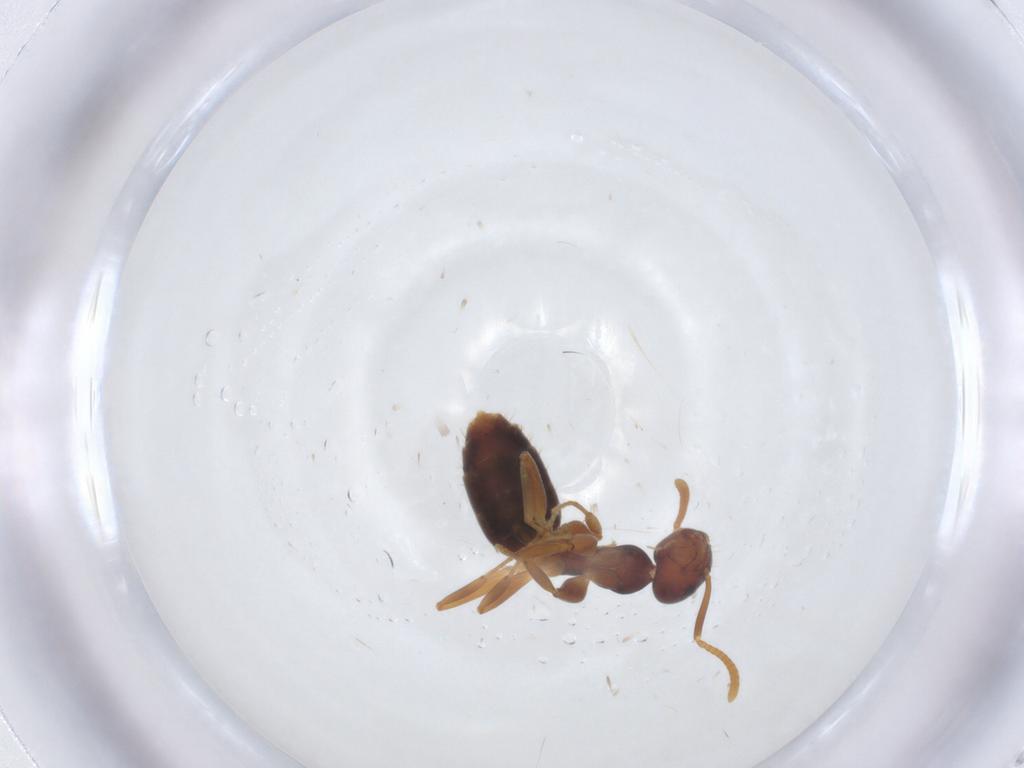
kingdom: Animalia
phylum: Arthropoda
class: Insecta
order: Hymenoptera
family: Formicidae
